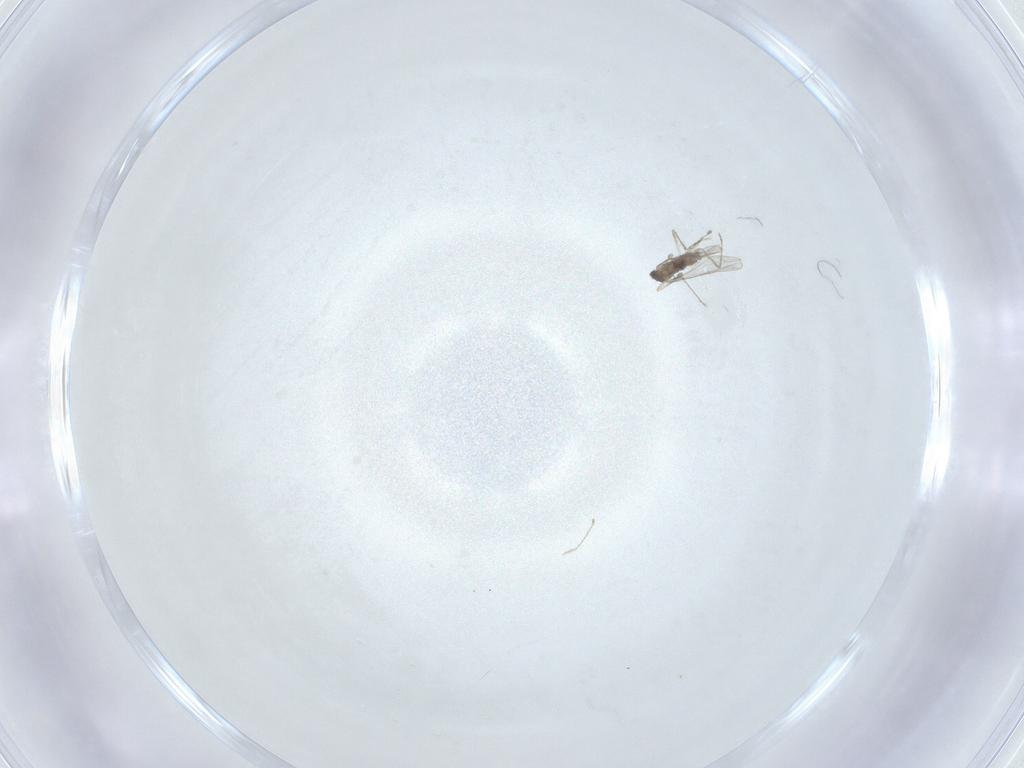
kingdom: Animalia
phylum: Arthropoda
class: Insecta
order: Diptera
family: Cecidomyiidae
